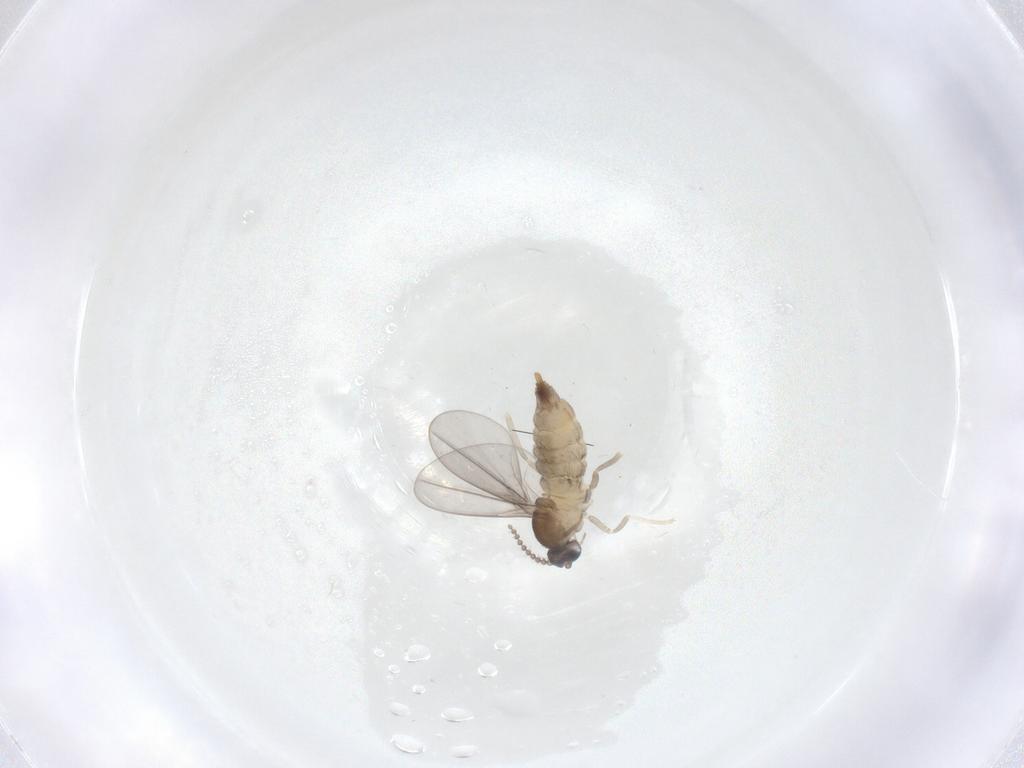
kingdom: Animalia
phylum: Arthropoda
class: Insecta
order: Diptera
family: Cecidomyiidae
